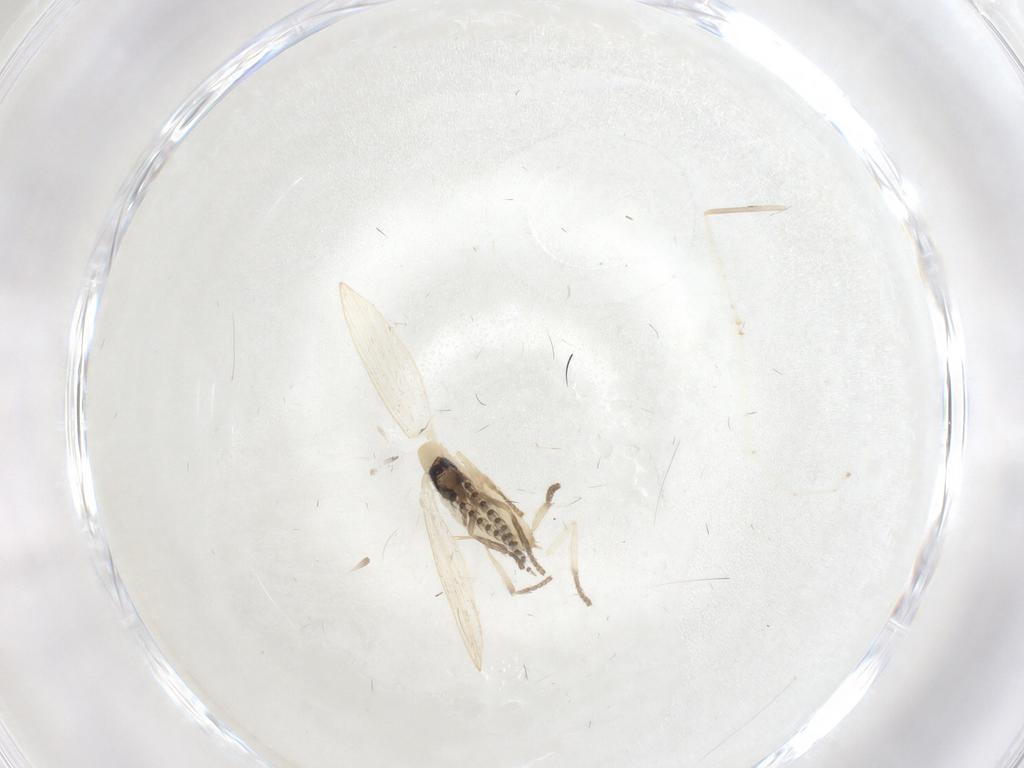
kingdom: Animalia
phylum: Arthropoda
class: Insecta
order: Diptera
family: Psychodidae
